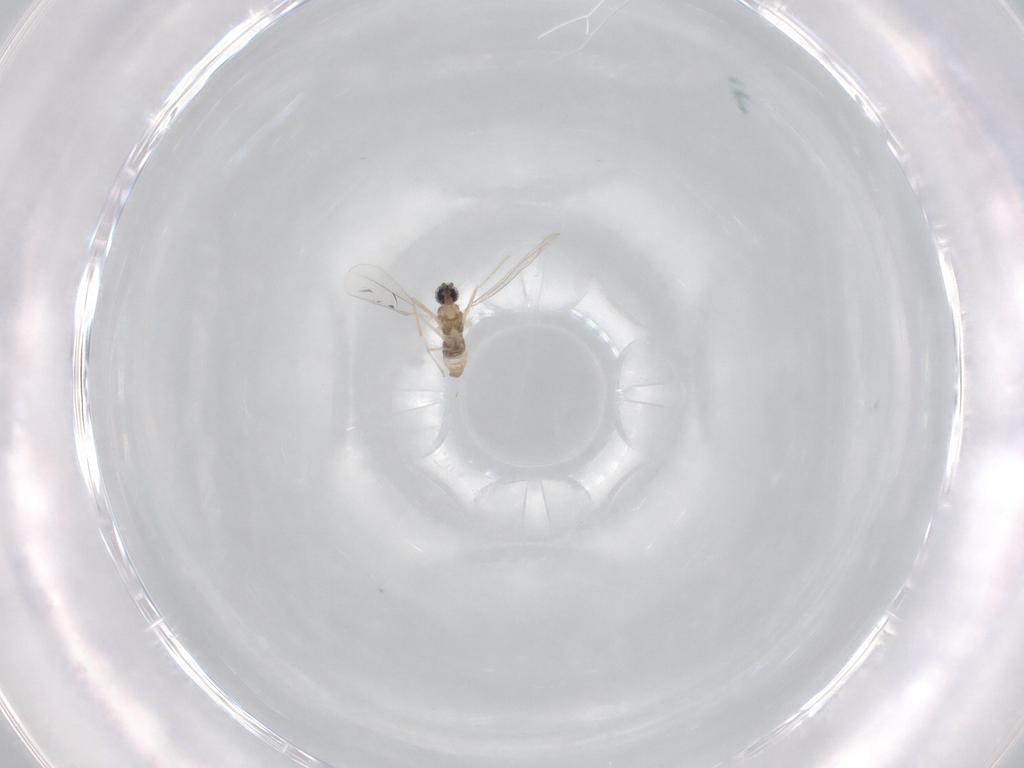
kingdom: Animalia
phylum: Arthropoda
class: Insecta
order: Diptera
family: Cecidomyiidae
